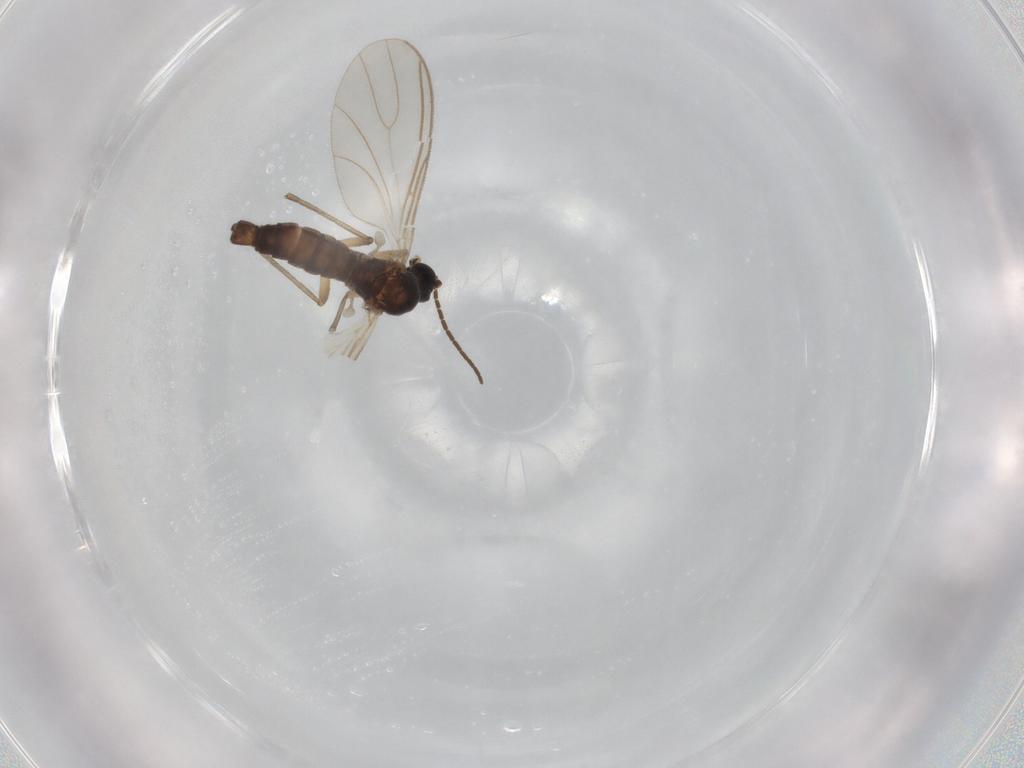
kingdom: Animalia
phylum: Arthropoda
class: Insecta
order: Diptera
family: Sciaridae
